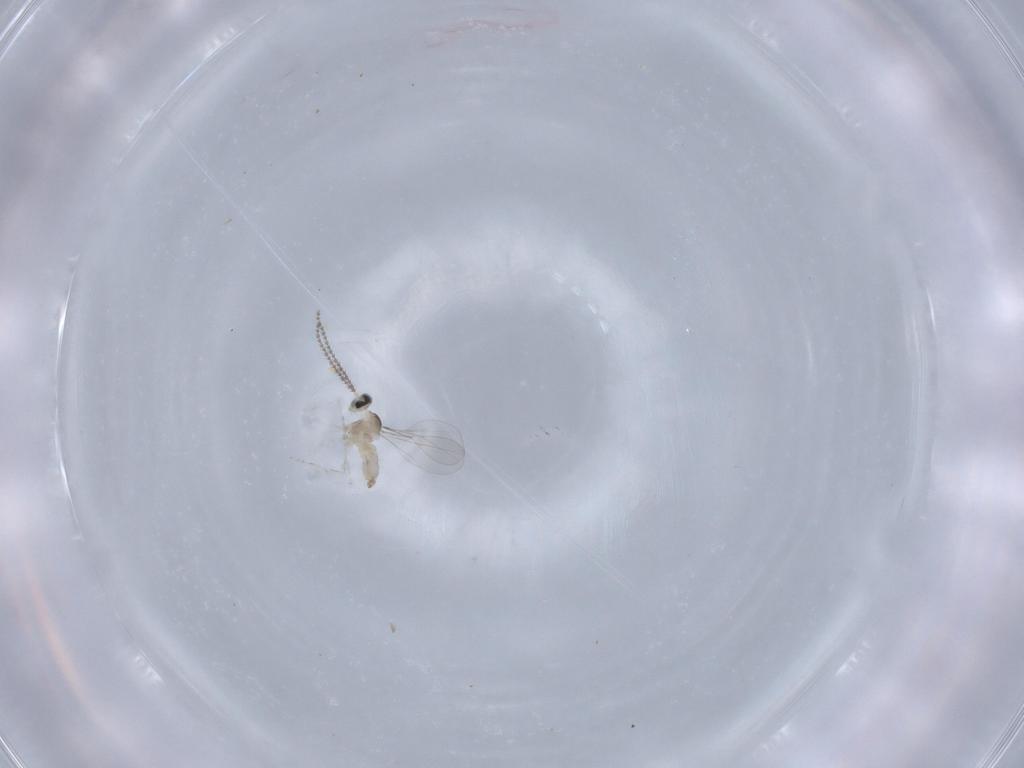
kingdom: Animalia
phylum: Arthropoda
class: Insecta
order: Diptera
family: Cecidomyiidae
